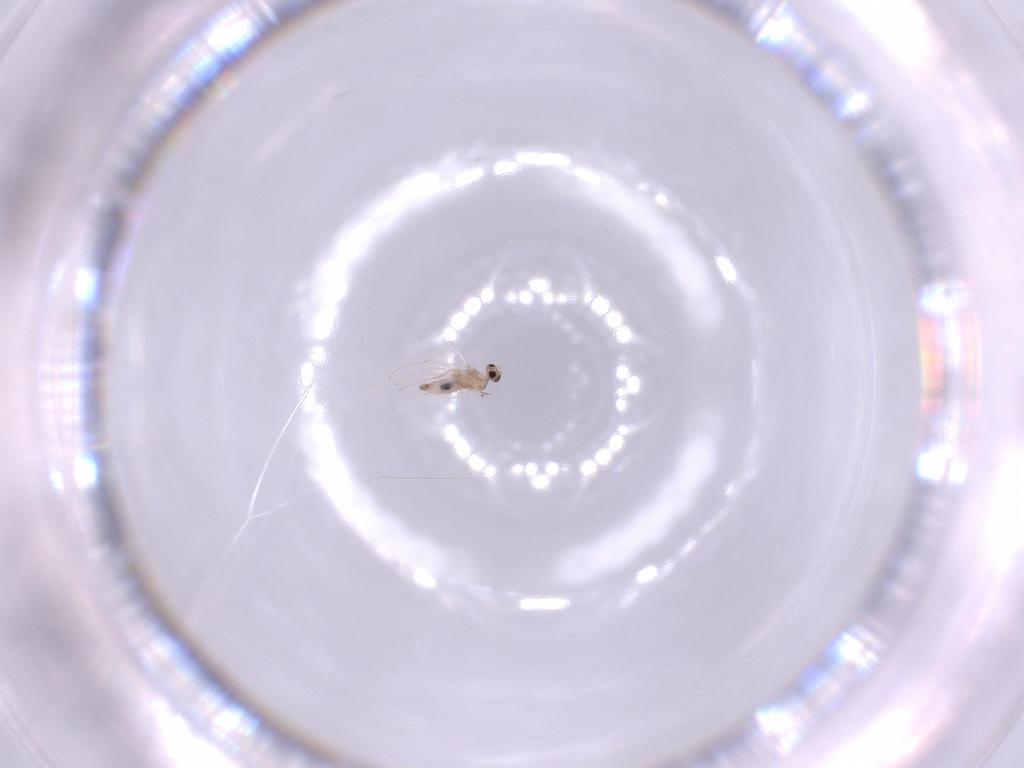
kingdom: Animalia
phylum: Arthropoda
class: Insecta
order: Diptera
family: Cecidomyiidae
